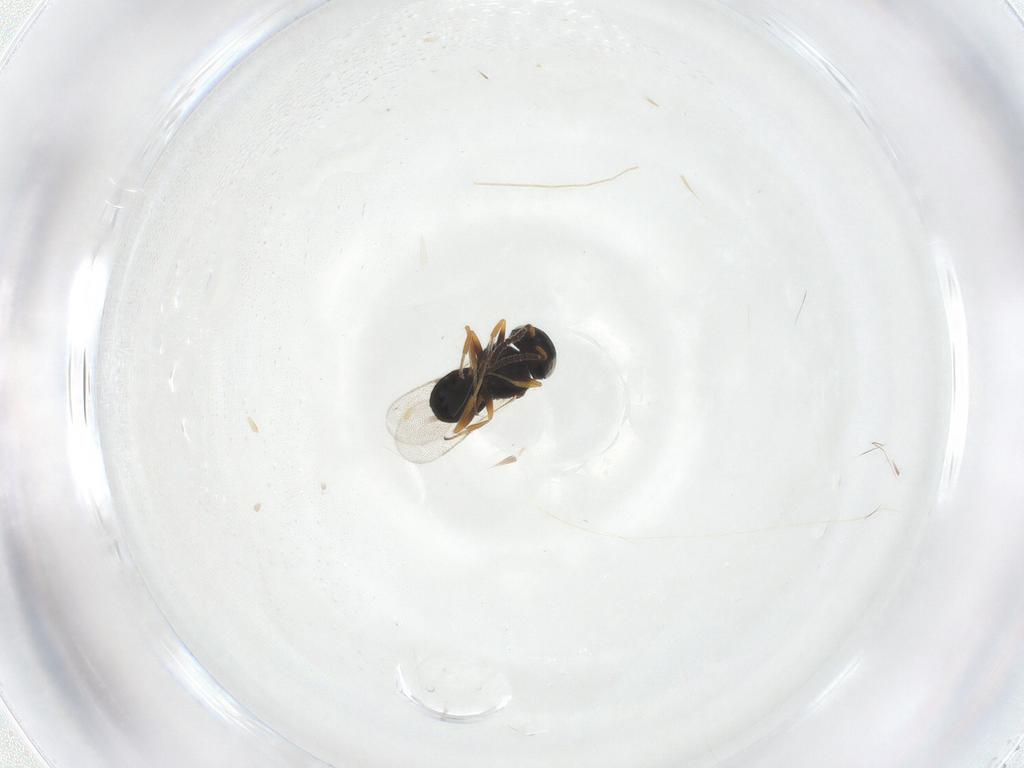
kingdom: Animalia
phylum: Arthropoda
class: Insecta
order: Hymenoptera
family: Scelionidae
